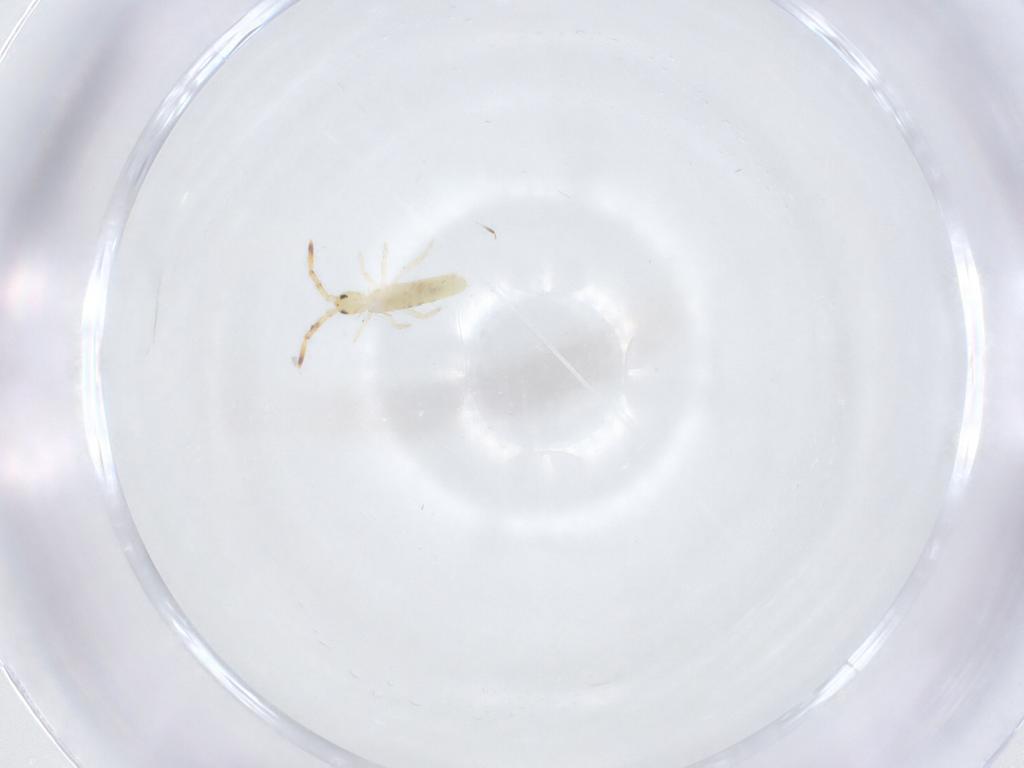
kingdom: Animalia
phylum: Arthropoda
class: Collembola
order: Entomobryomorpha
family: Entomobryidae
